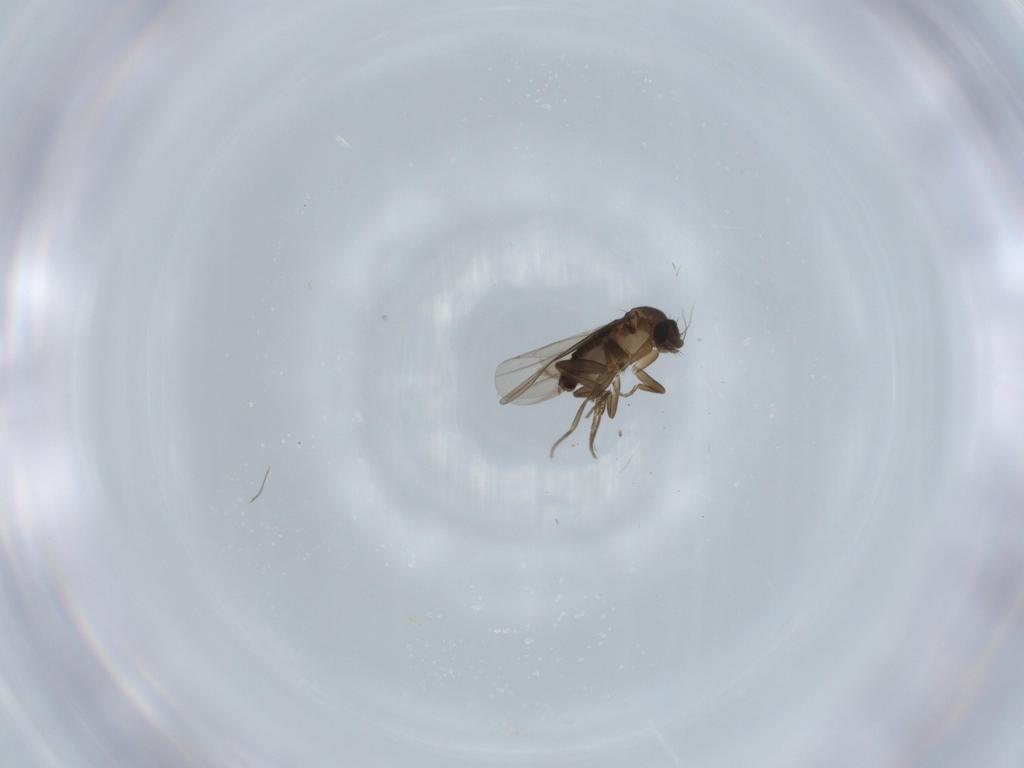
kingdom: Animalia
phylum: Arthropoda
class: Insecta
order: Diptera
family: Phoridae
